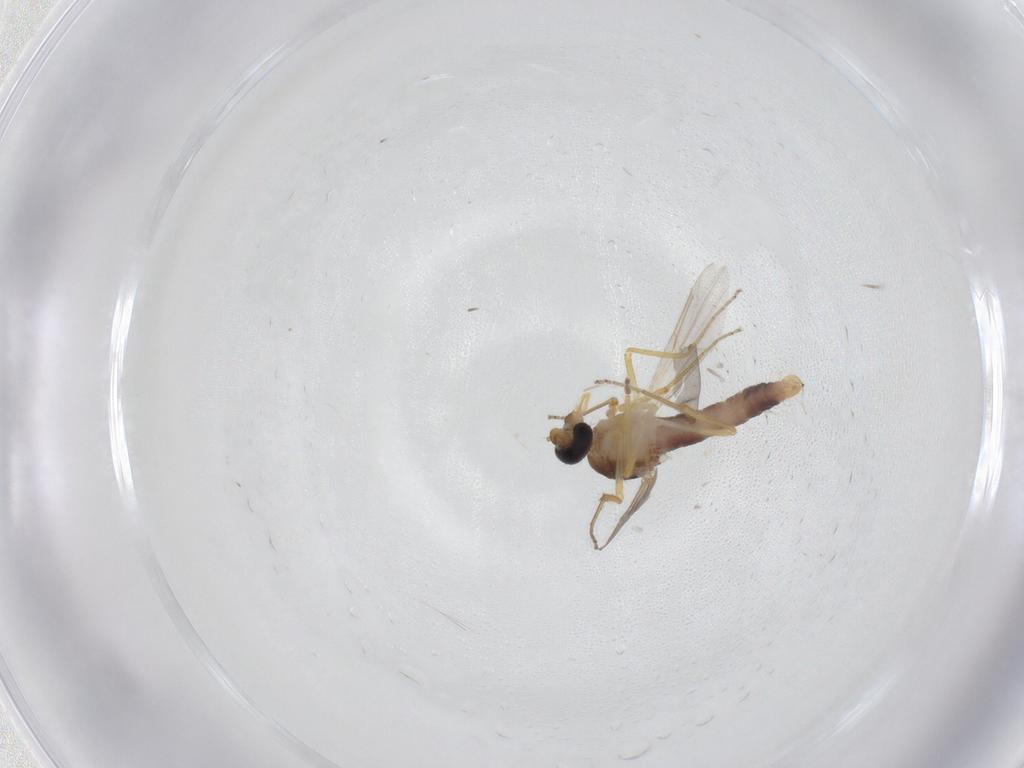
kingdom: Animalia
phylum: Arthropoda
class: Insecta
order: Diptera
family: Ceratopogonidae
